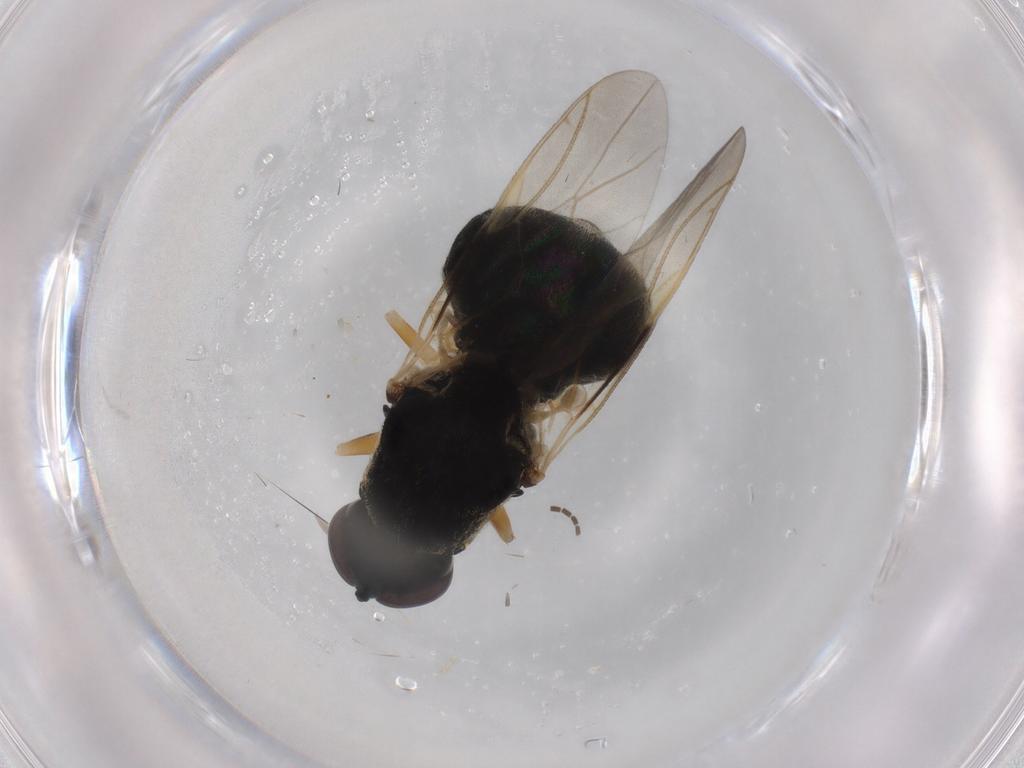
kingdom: Animalia
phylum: Arthropoda
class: Insecta
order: Diptera
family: Stratiomyidae
